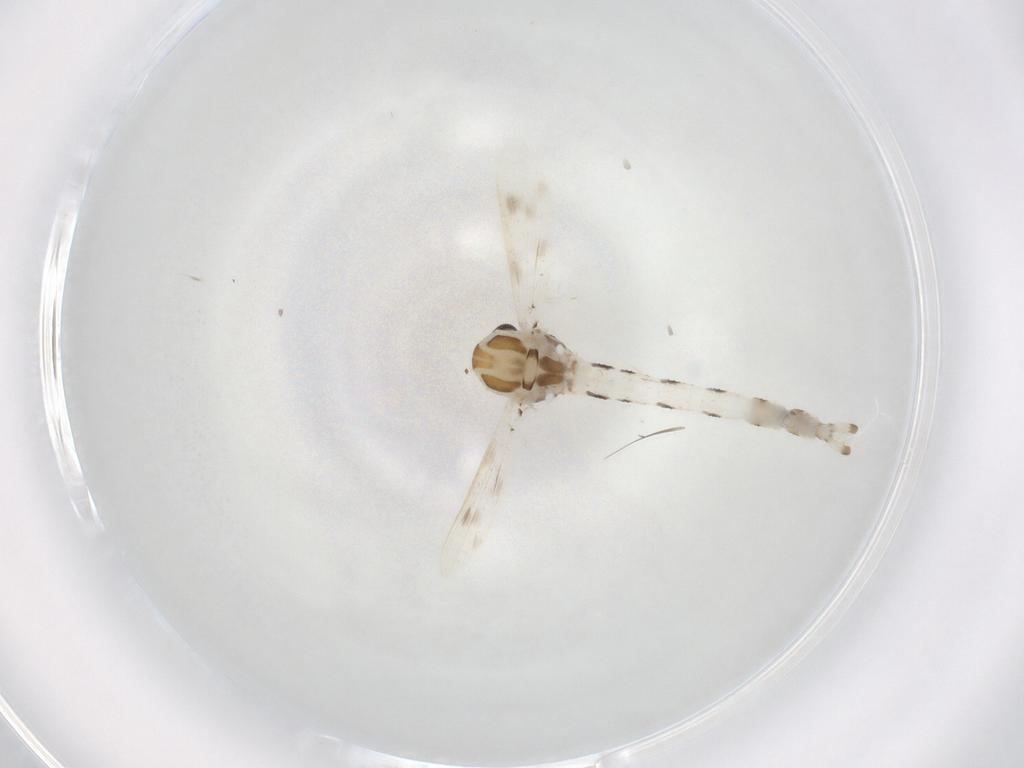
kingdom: Animalia
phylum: Arthropoda
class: Insecta
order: Diptera
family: Corethrellidae
